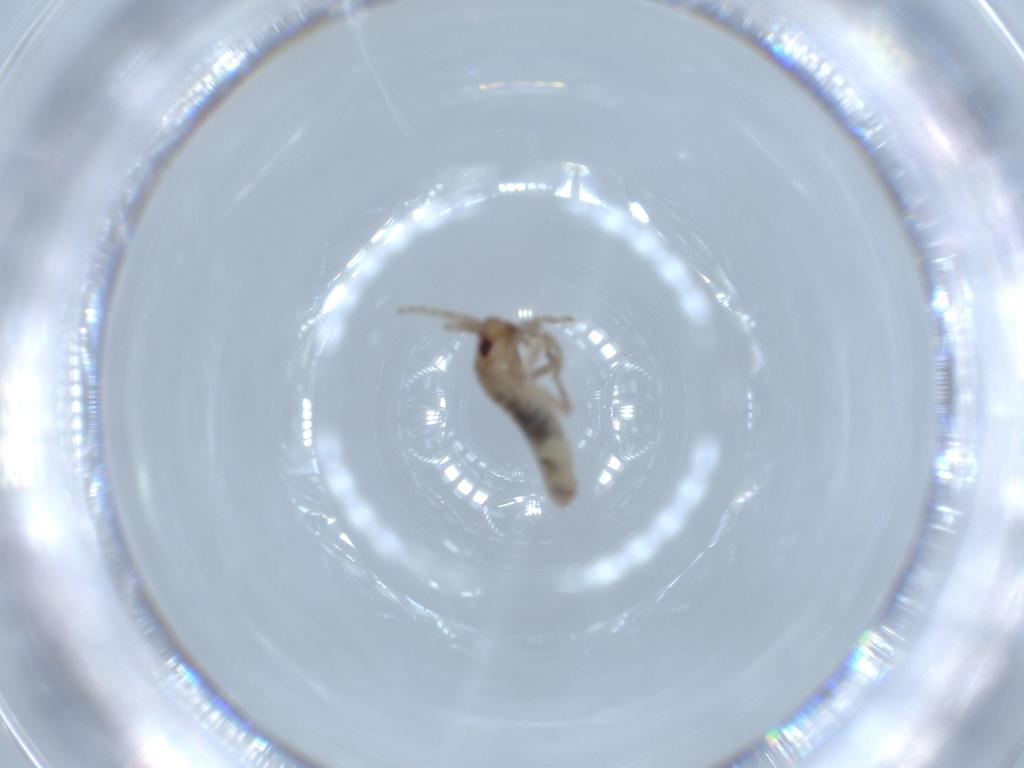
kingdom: Animalia
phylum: Arthropoda
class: Insecta
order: Orthoptera
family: Mogoplistidae
